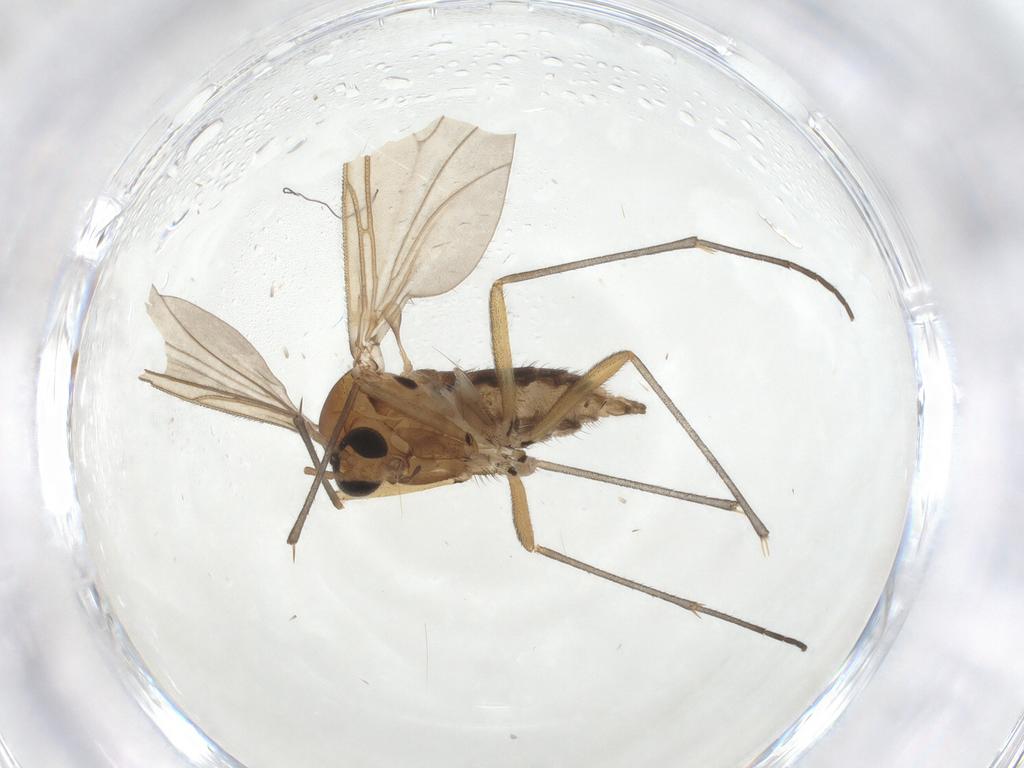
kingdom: Animalia
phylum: Arthropoda
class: Insecta
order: Diptera
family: Sciaridae
